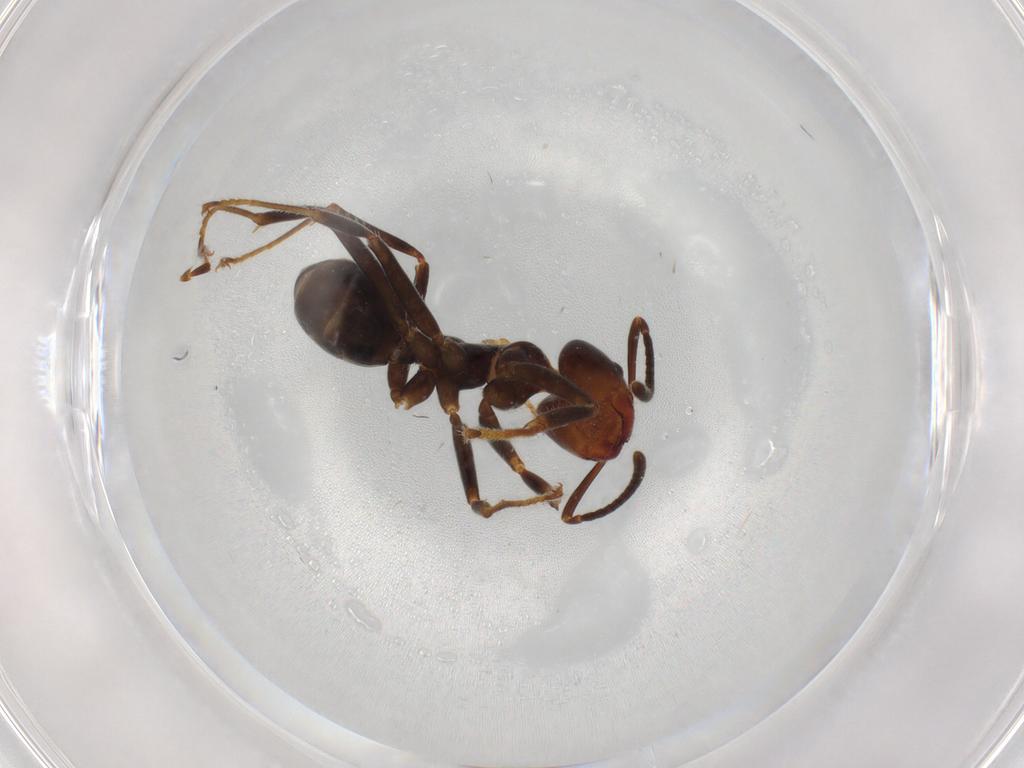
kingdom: Animalia
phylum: Arthropoda
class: Insecta
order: Hymenoptera
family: Formicidae
